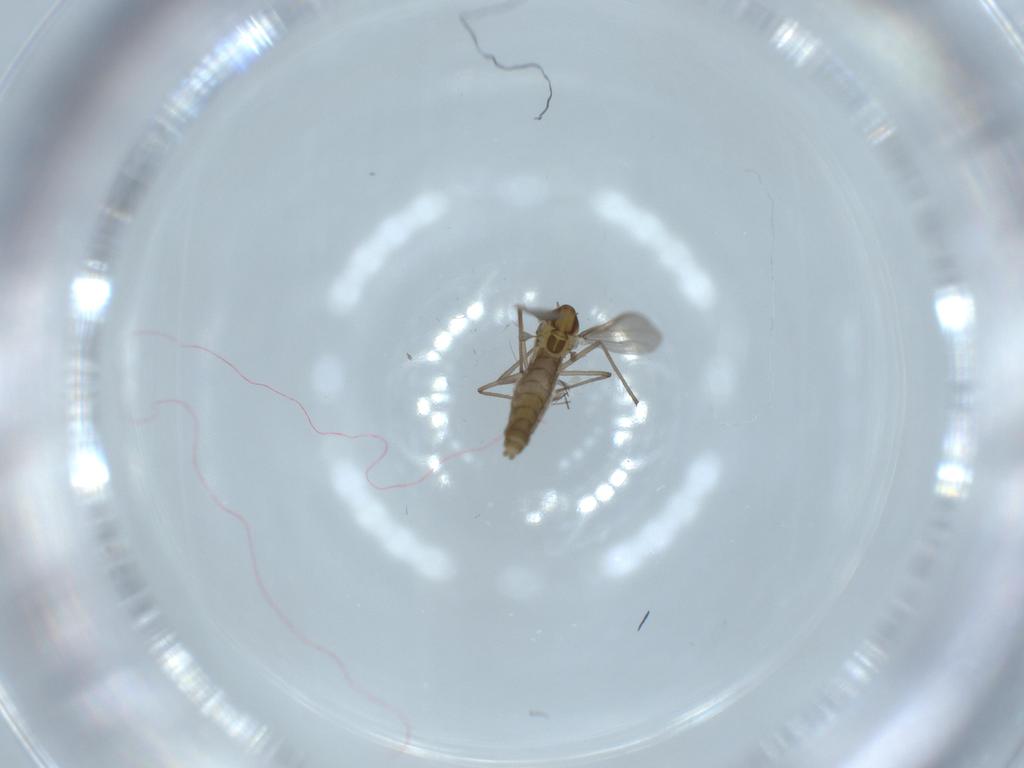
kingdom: Animalia
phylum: Arthropoda
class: Insecta
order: Diptera
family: Chironomidae
